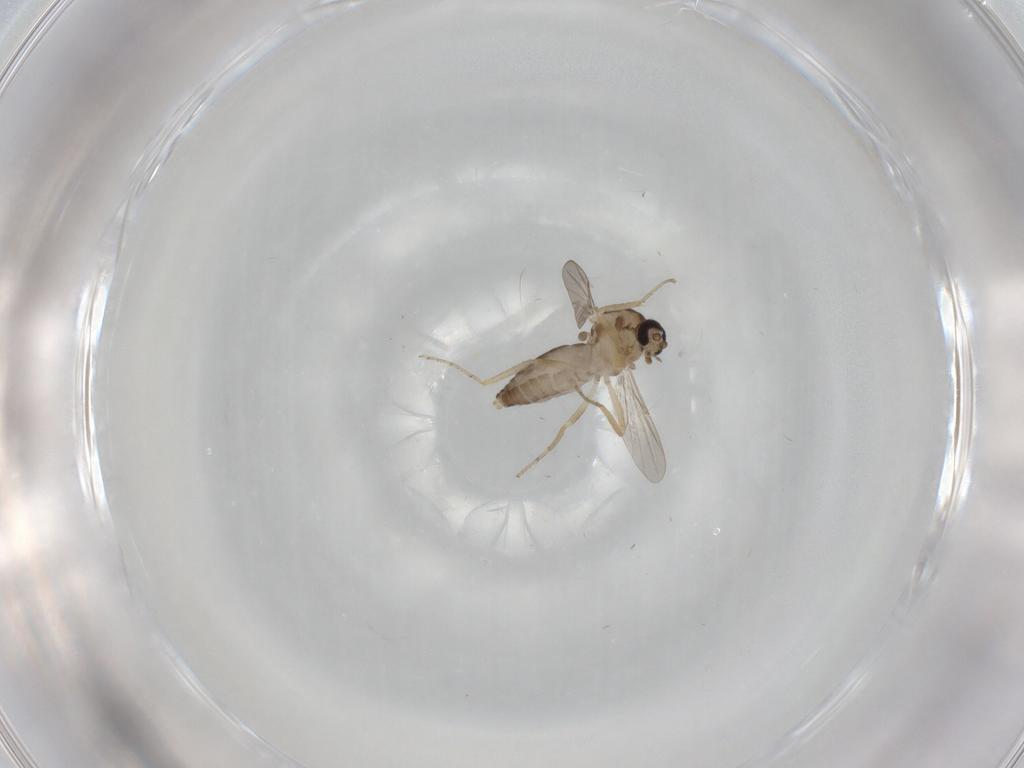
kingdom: Animalia
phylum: Arthropoda
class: Insecta
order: Diptera
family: Ceratopogonidae
